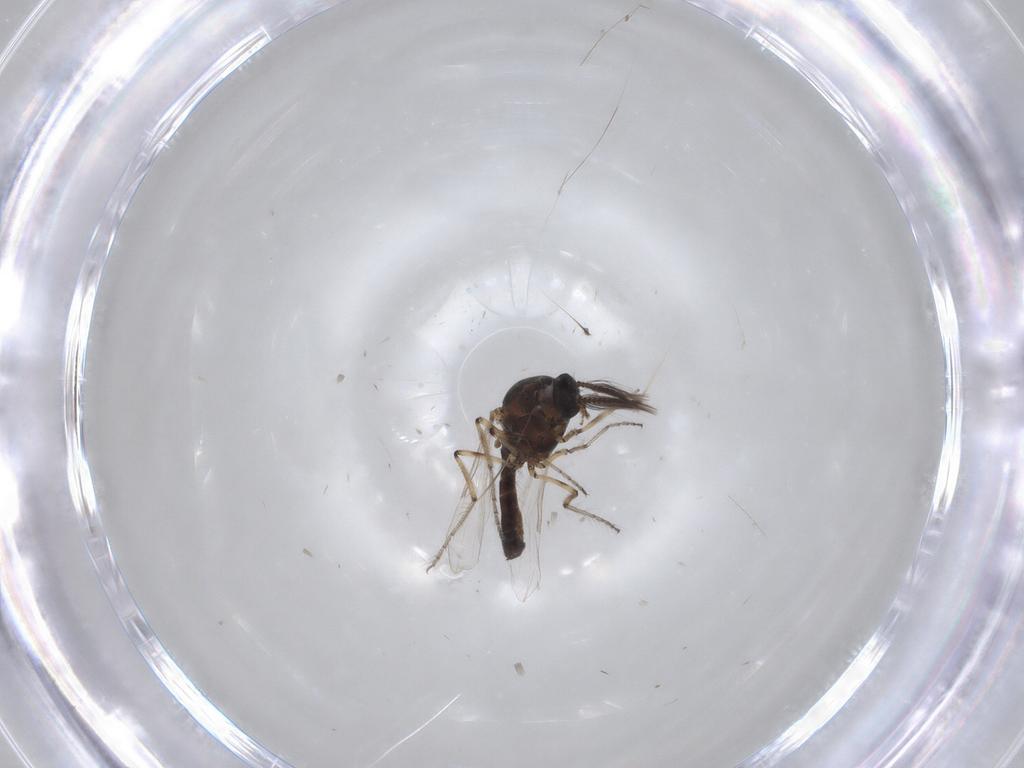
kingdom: Animalia
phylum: Arthropoda
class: Insecta
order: Diptera
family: Ceratopogonidae
